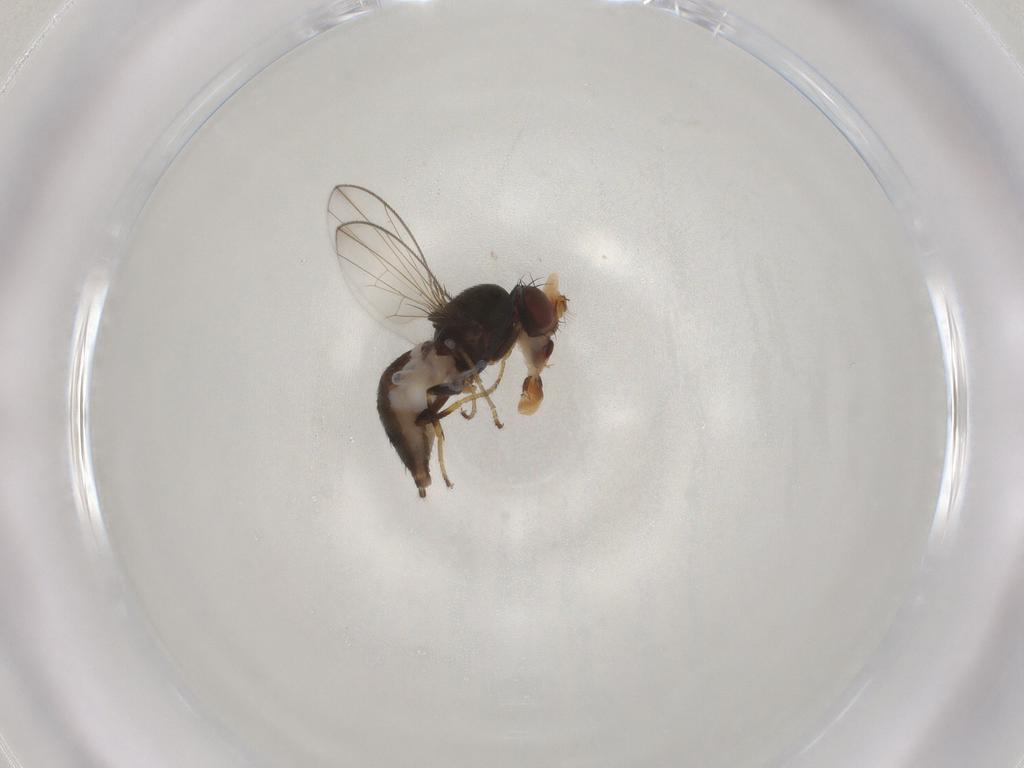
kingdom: Animalia
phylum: Arthropoda
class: Insecta
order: Diptera
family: Ephydridae
